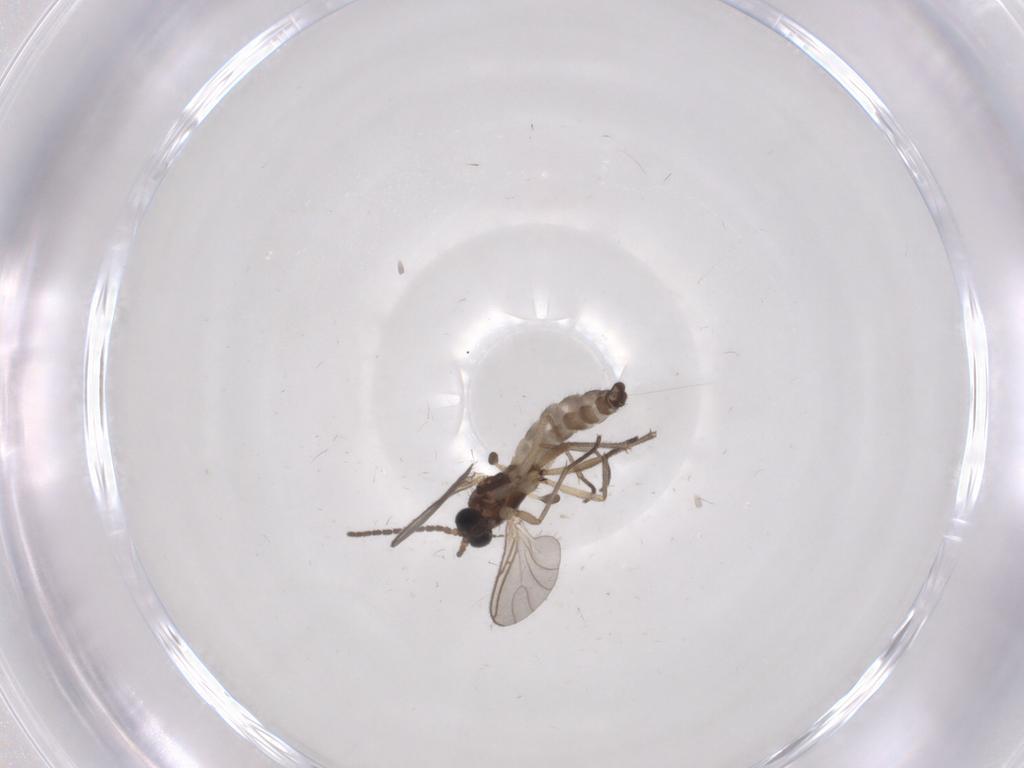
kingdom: Animalia
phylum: Arthropoda
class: Insecta
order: Diptera
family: Sciaridae
